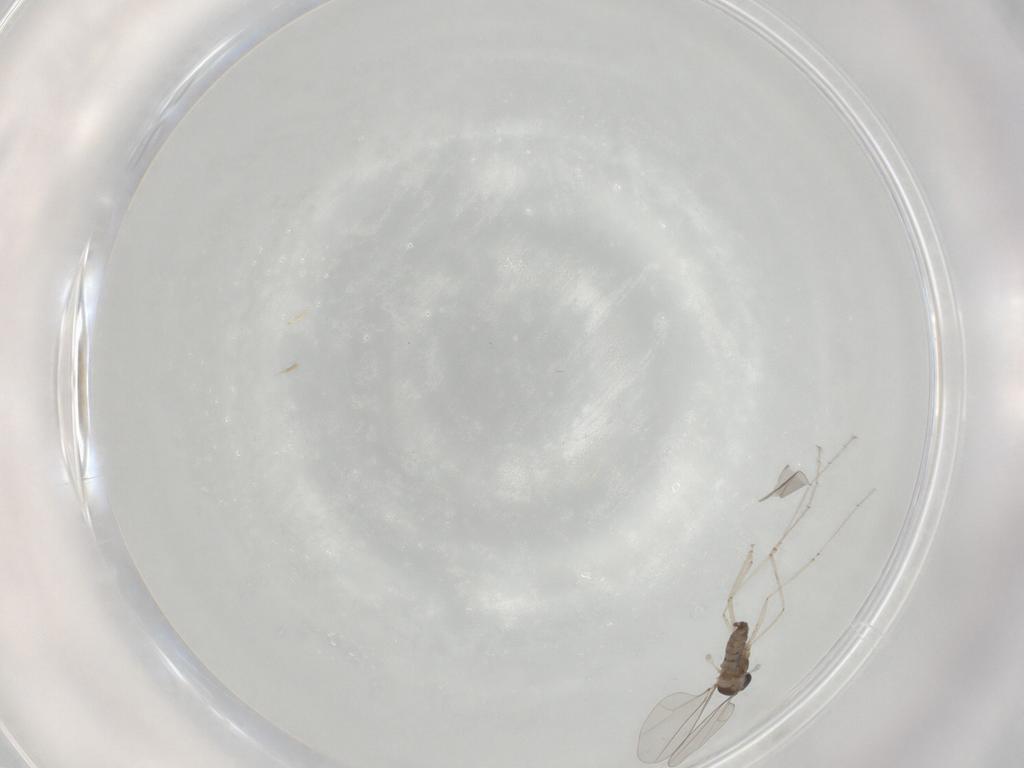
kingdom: Animalia
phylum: Arthropoda
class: Insecta
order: Diptera
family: Cecidomyiidae
